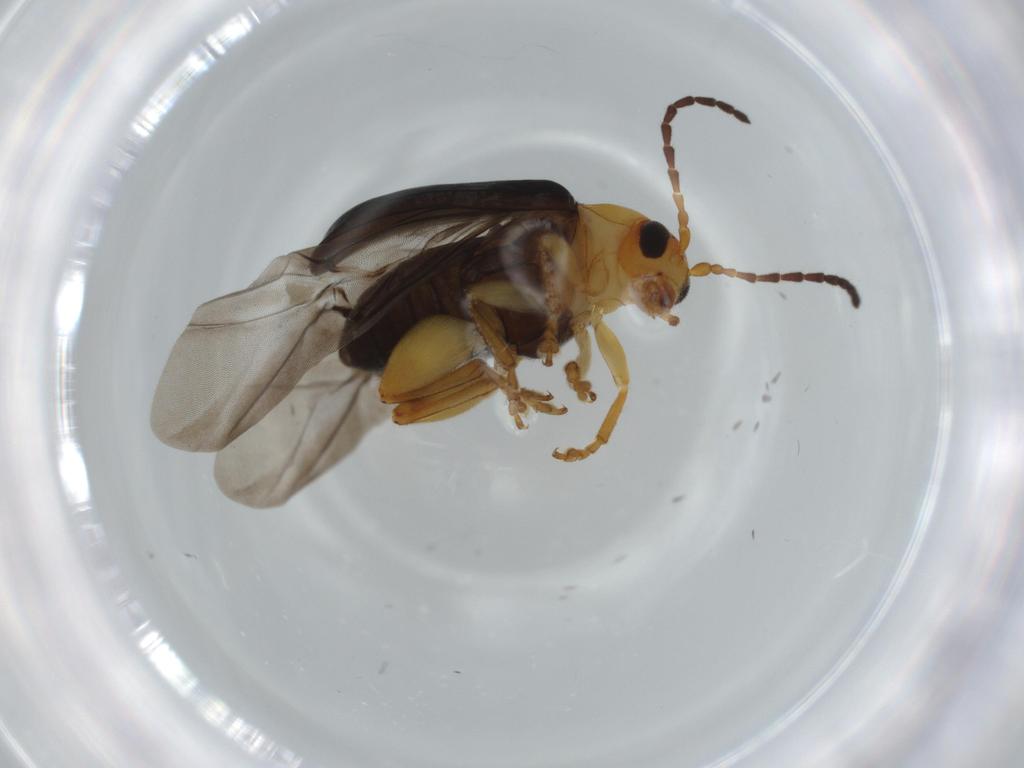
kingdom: Animalia
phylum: Arthropoda
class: Insecta
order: Coleoptera
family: Chrysomelidae
